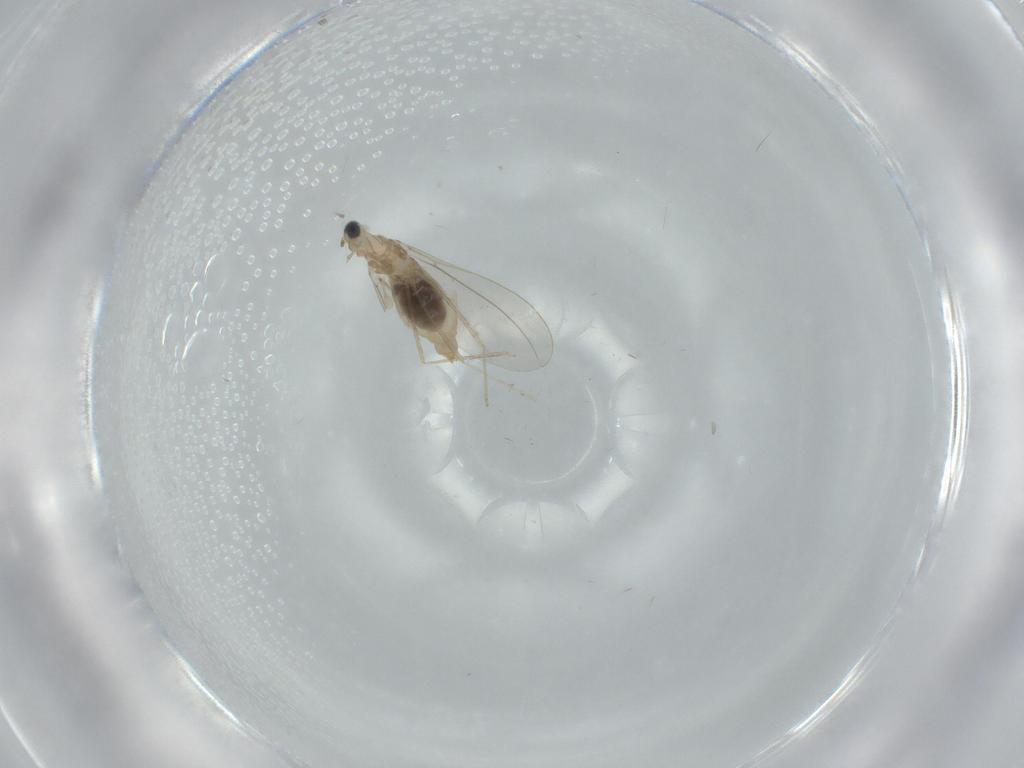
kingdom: Animalia
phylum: Arthropoda
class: Insecta
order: Diptera
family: Cecidomyiidae
